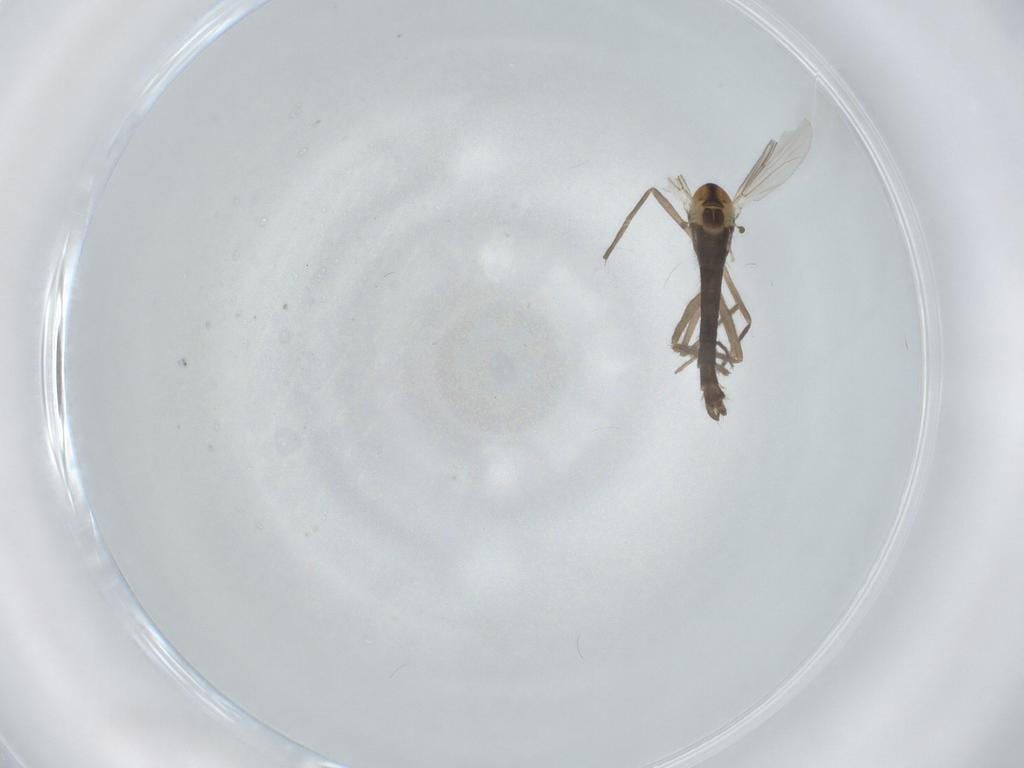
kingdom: Animalia
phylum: Arthropoda
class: Insecta
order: Diptera
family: Chironomidae
